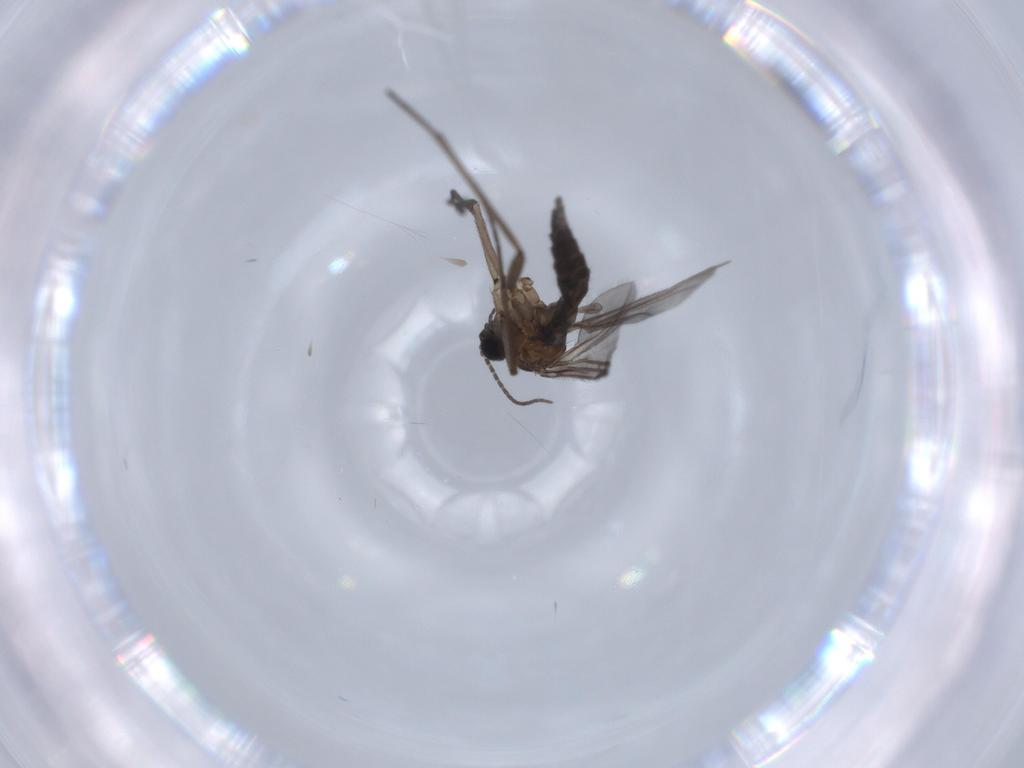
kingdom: Animalia
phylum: Arthropoda
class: Insecta
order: Diptera
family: Sciaridae
